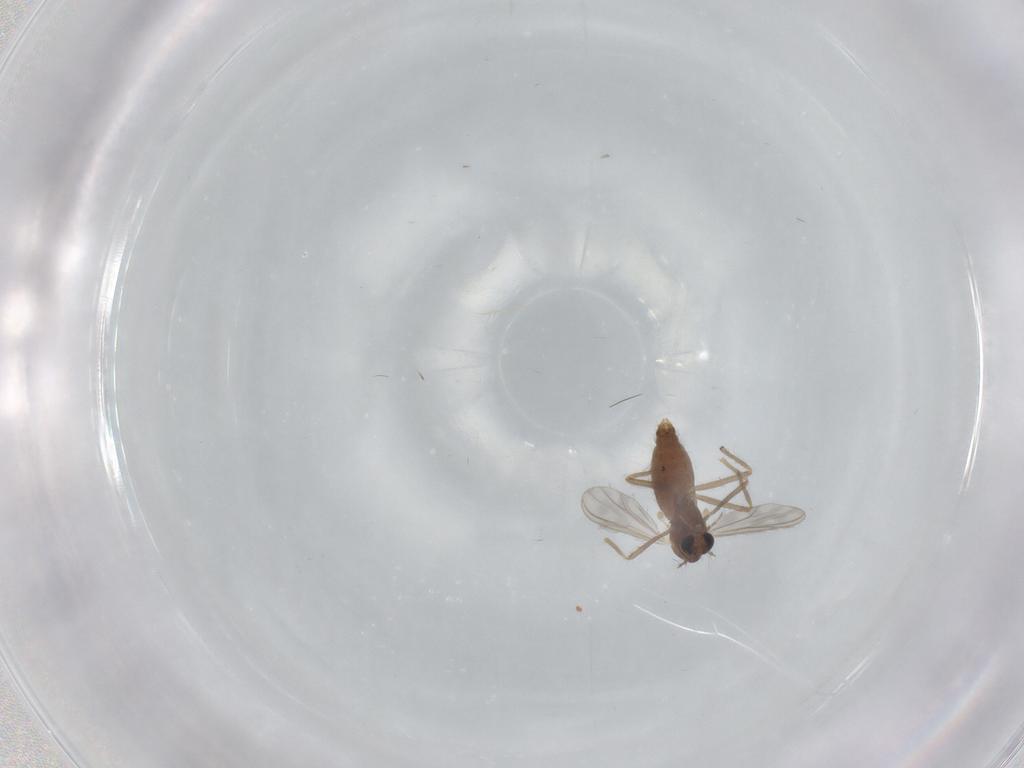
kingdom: Animalia
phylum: Arthropoda
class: Insecta
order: Diptera
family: Chironomidae
